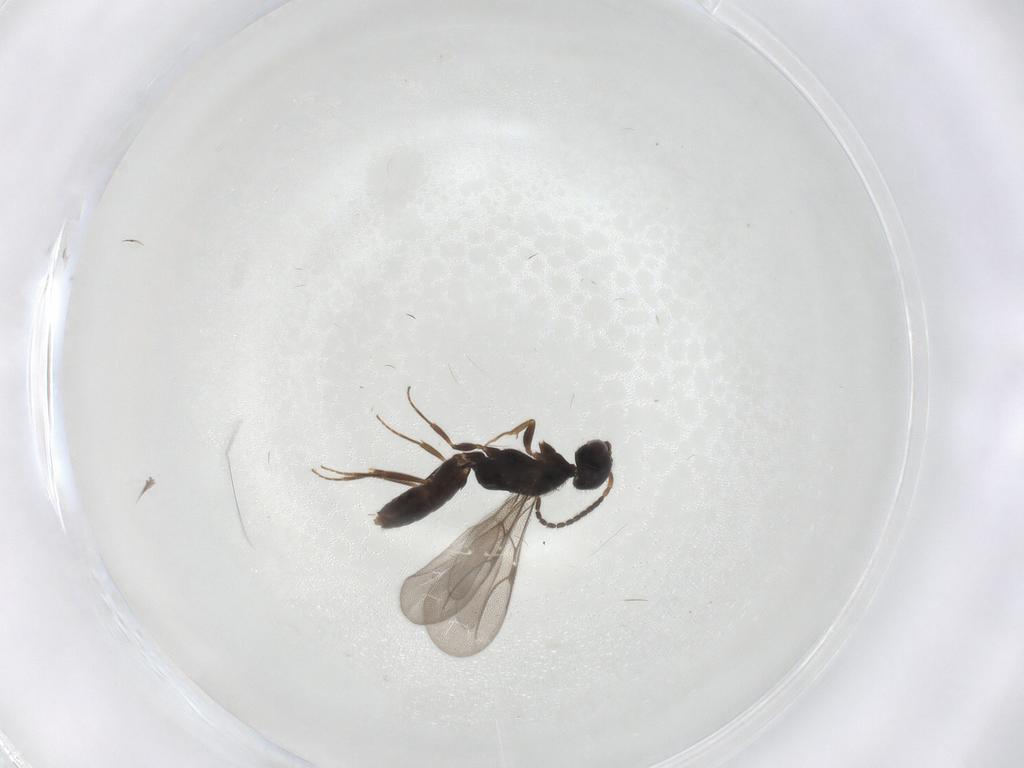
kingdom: Animalia
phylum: Arthropoda
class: Insecta
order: Hymenoptera
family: Bethylidae
